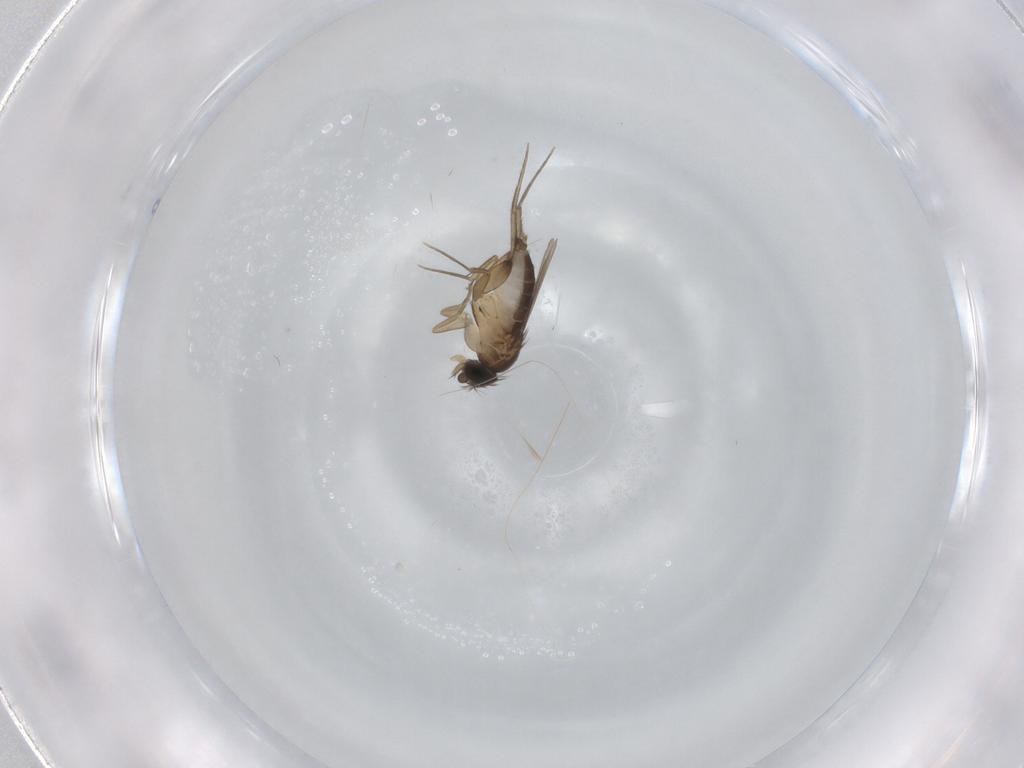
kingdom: Animalia
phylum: Arthropoda
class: Insecta
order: Diptera
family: Phoridae
